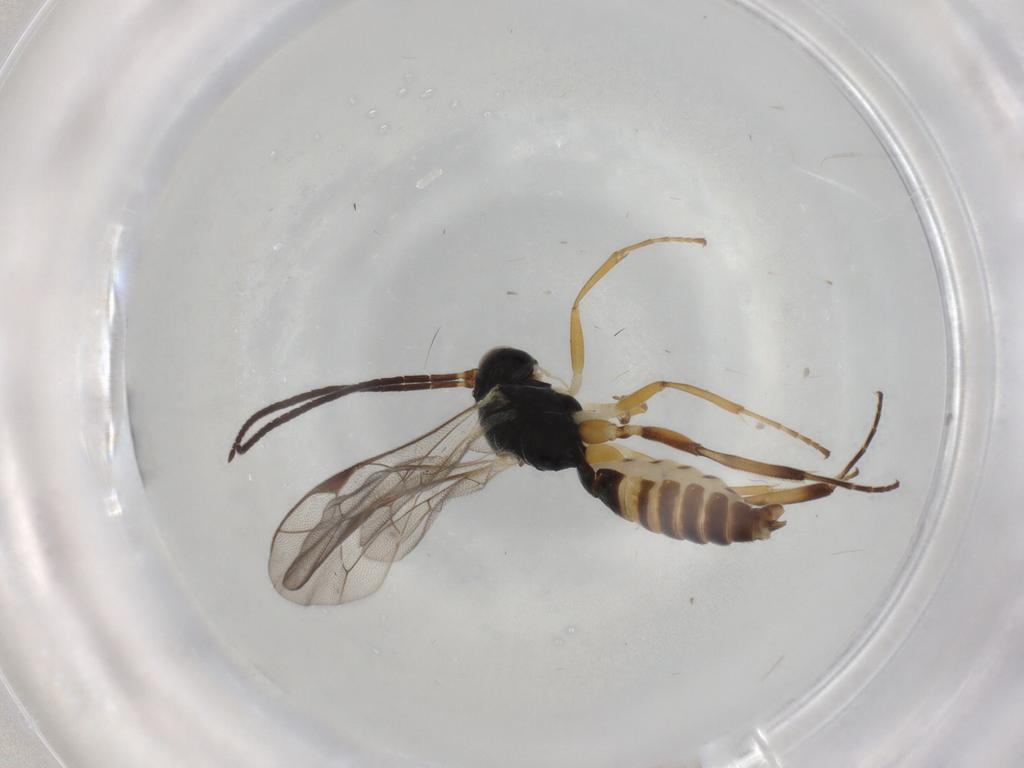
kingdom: Animalia
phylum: Arthropoda
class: Insecta
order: Hymenoptera
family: Ichneumonidae
